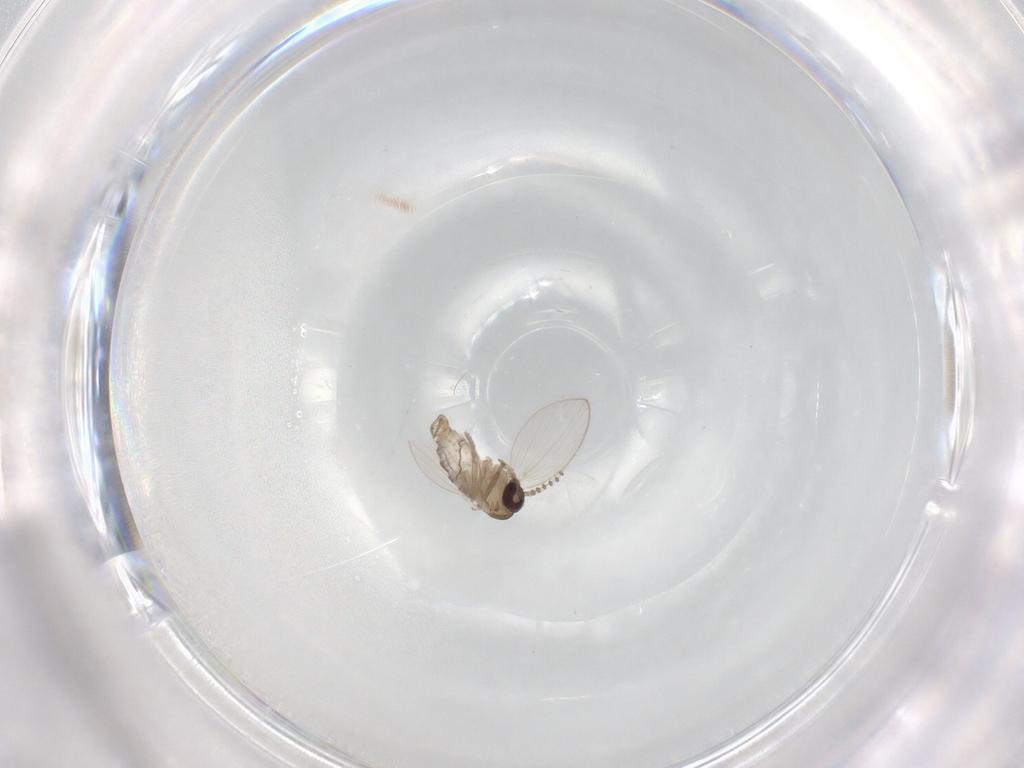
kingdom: Animalia
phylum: Arthropoda
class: Insecta
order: Diptera
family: Psychodidae
